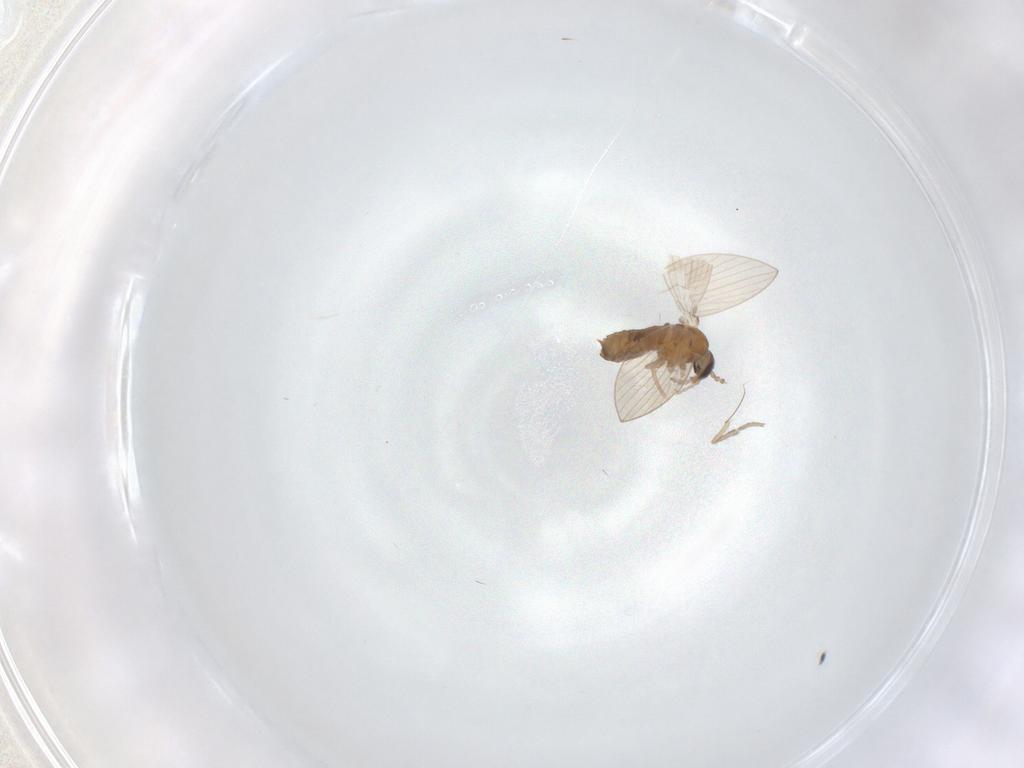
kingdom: Animalia
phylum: Arthropoda
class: Insecta
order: Diptera
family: Psychodidae
